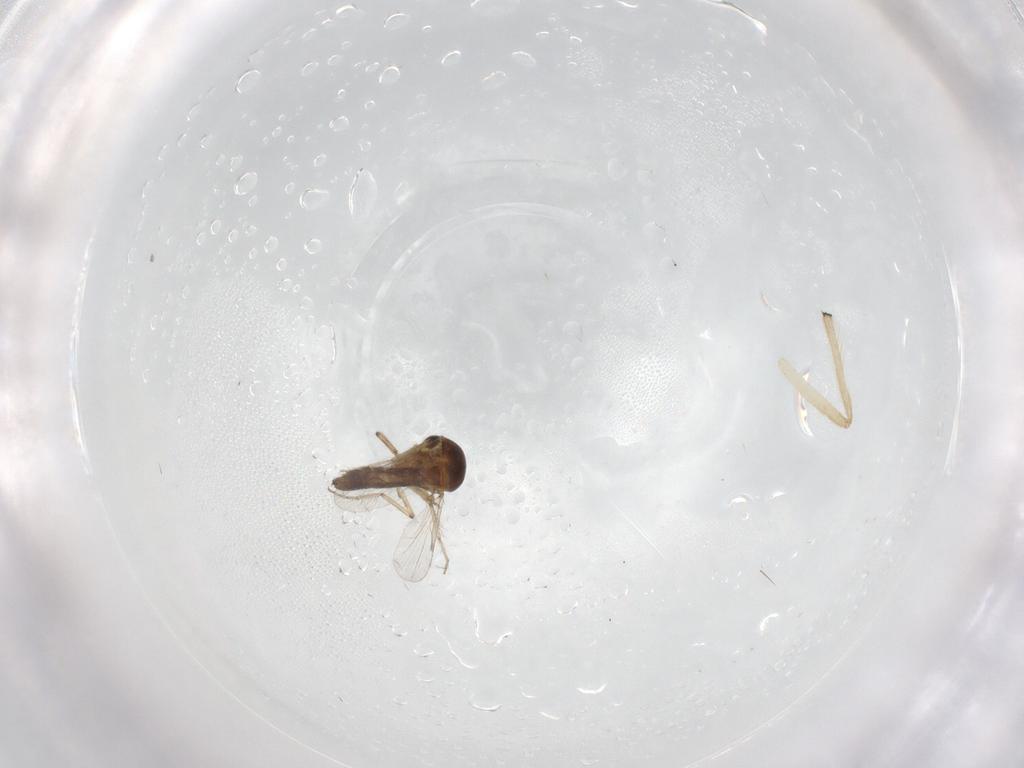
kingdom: Animalia
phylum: Arthropoda
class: Insecta
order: Diptera
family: Ceratopogonidae
